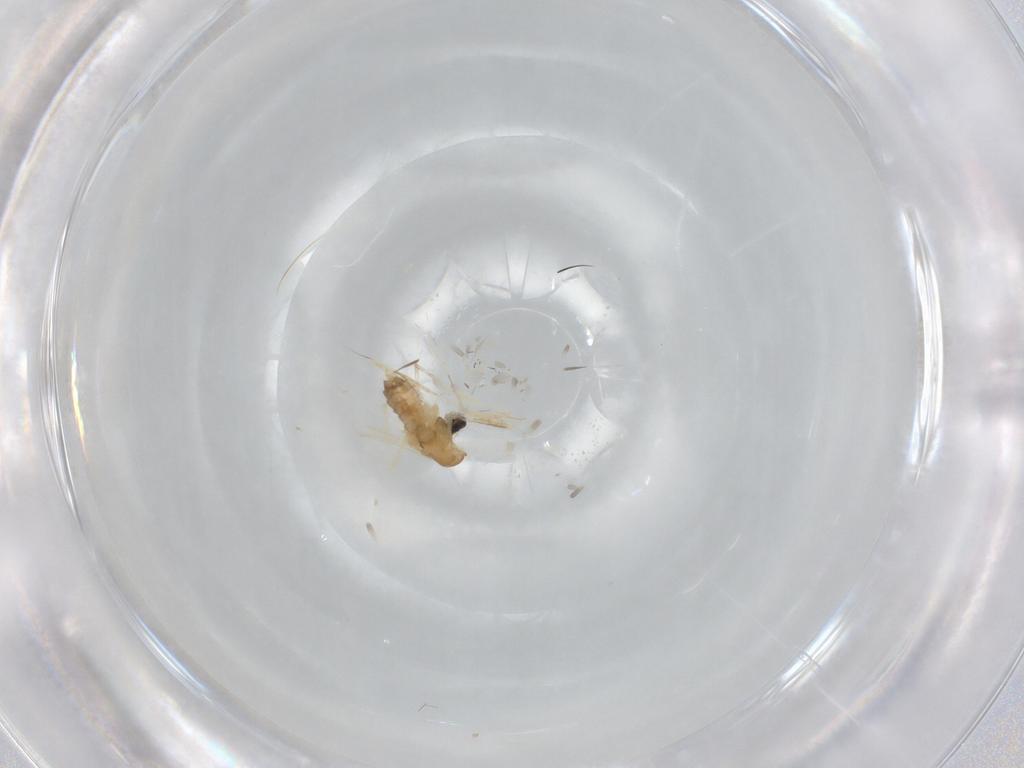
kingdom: Animalia
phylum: Arthropoda
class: Insecta
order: Diptera
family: Cecidomyiidae
